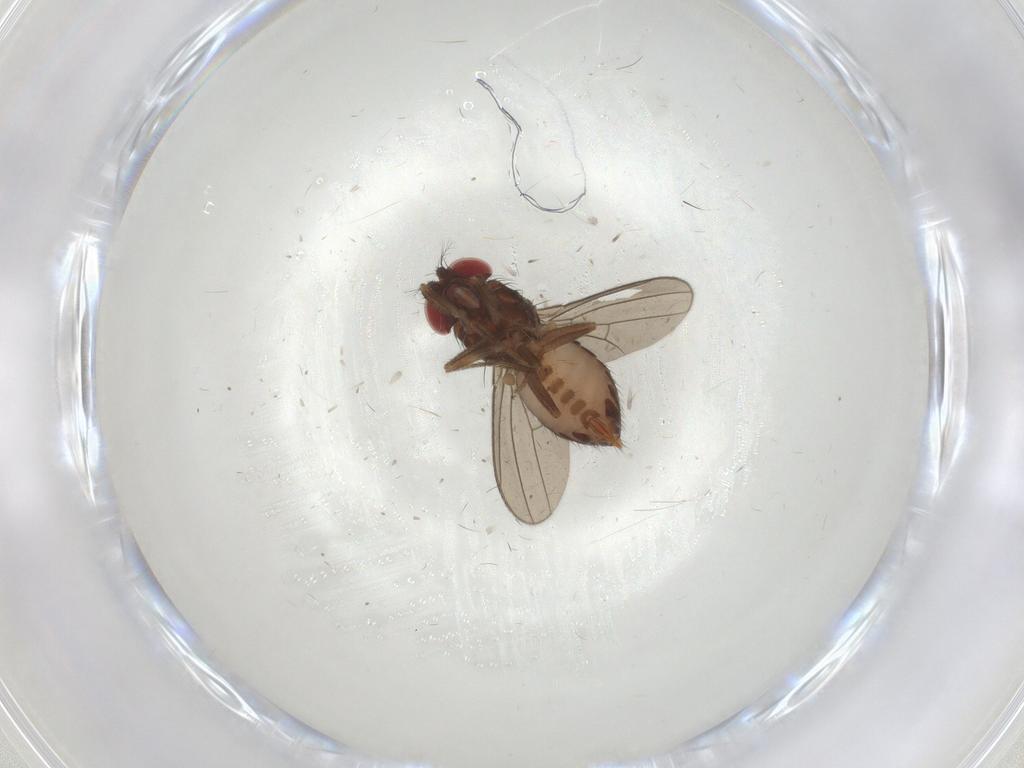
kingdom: Animalia
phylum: Arthropoda
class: Insecta
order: Diptera
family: Drosophilidae
